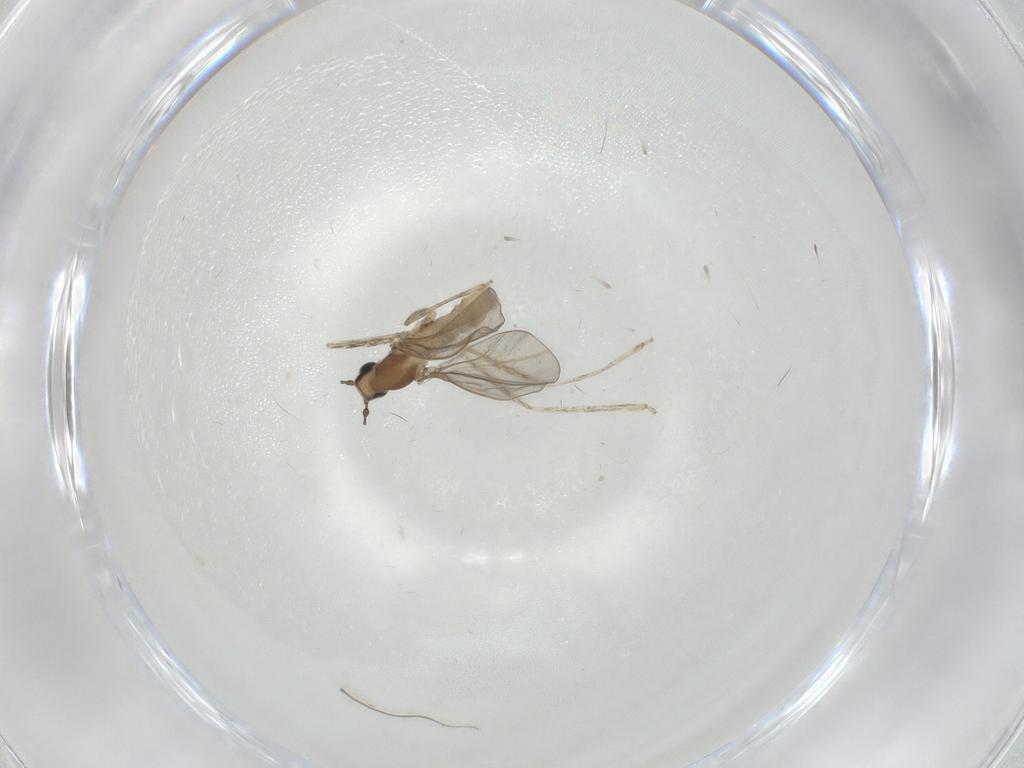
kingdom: Animalia
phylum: Arthropoda
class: Insecta
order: Diptera
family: Cecidomyiidae
